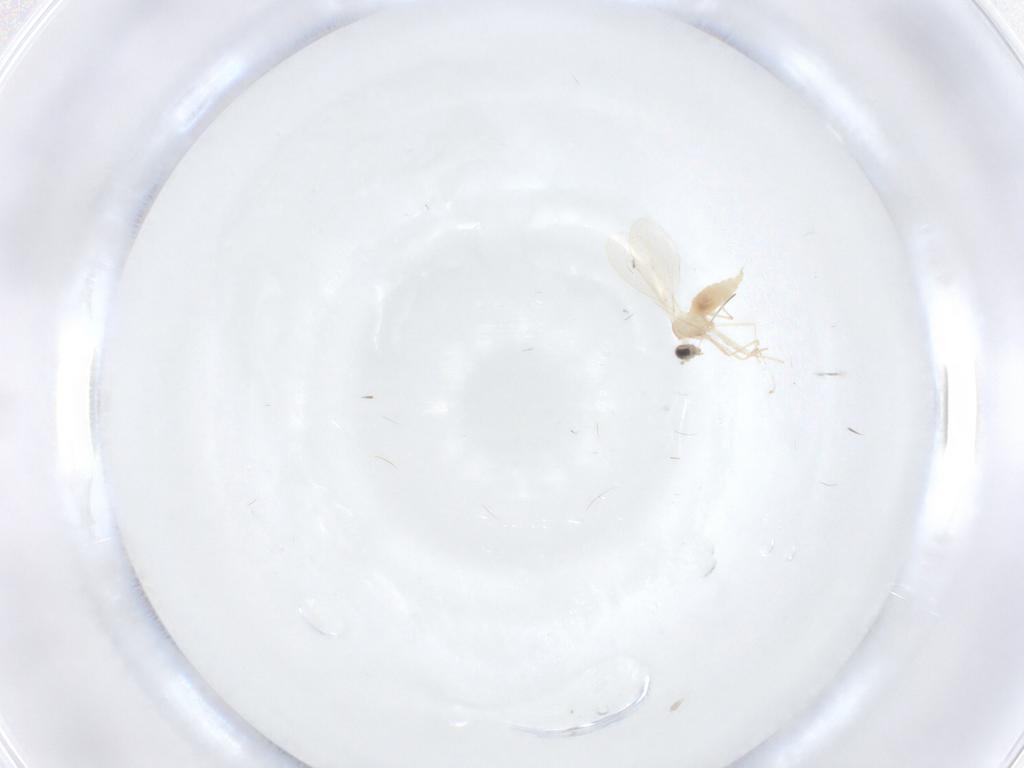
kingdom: Animalia
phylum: Arthropoda
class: Insecta
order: Diptera
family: Cecidomyiidae
